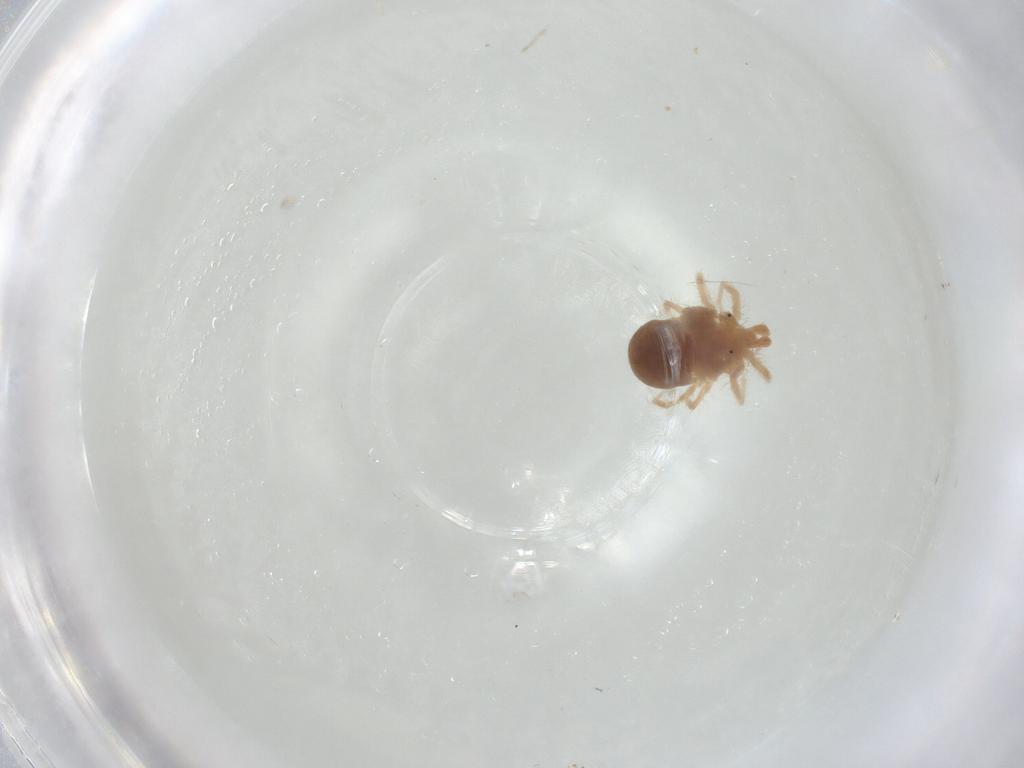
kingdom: Animalia
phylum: Arthropoda
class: Arachnida
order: Trombidiformes
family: Anystidae
